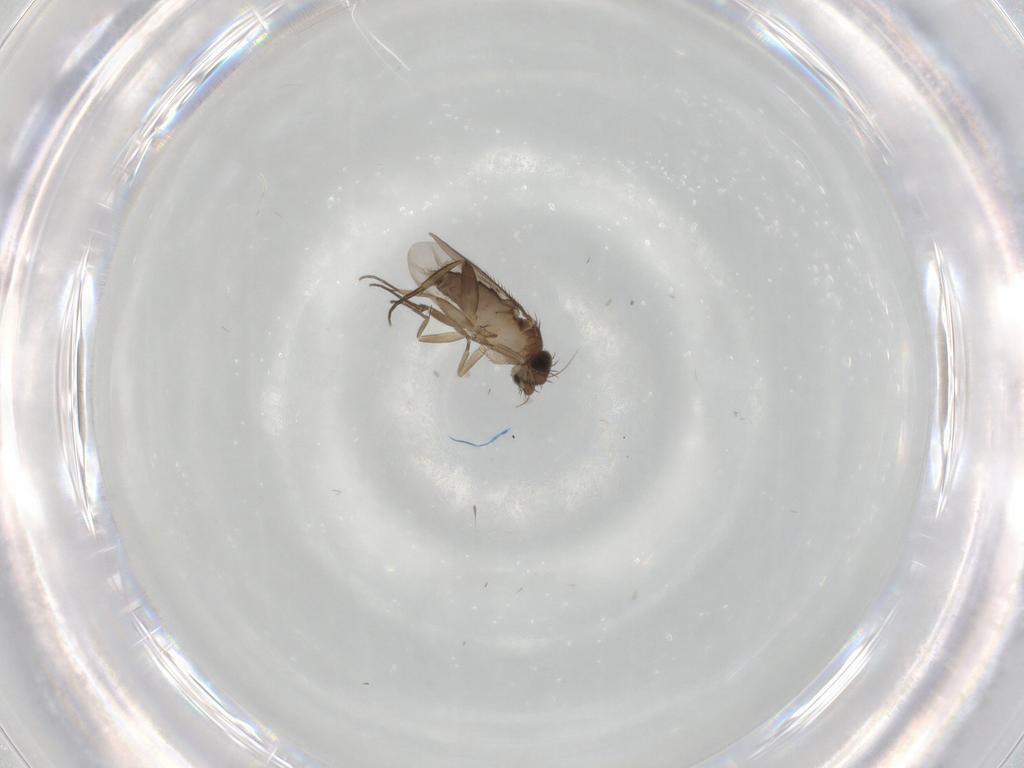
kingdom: Animalia
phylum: Arthropoda
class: Insecta
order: Diptera
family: Phoridae
